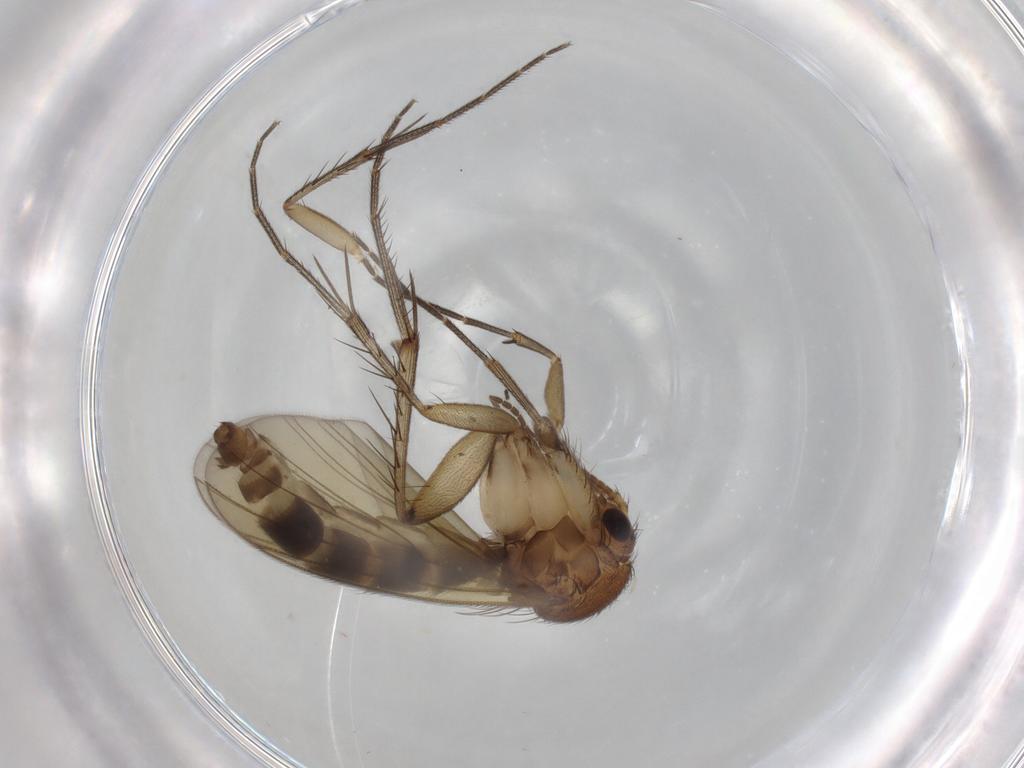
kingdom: Animalia
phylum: Arthropoda
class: Insecta
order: Diptera
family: Mycetophilidae
